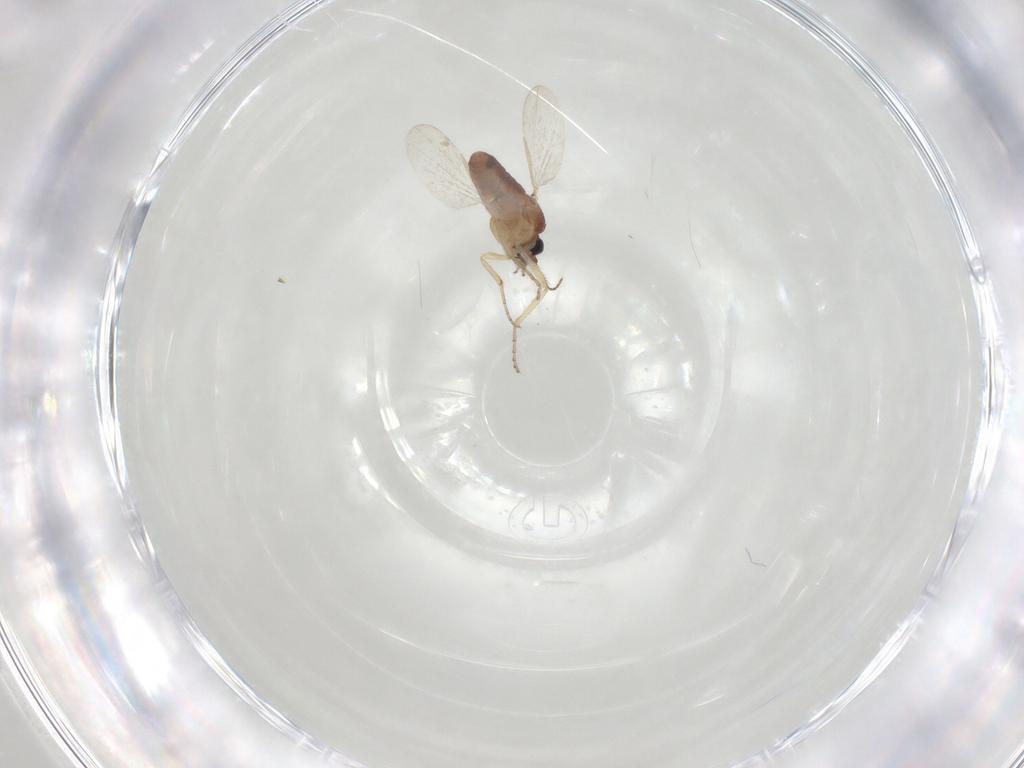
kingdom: Animalia
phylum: Arthropoda
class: Insecta
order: Diptera
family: Ceratopogonidae
